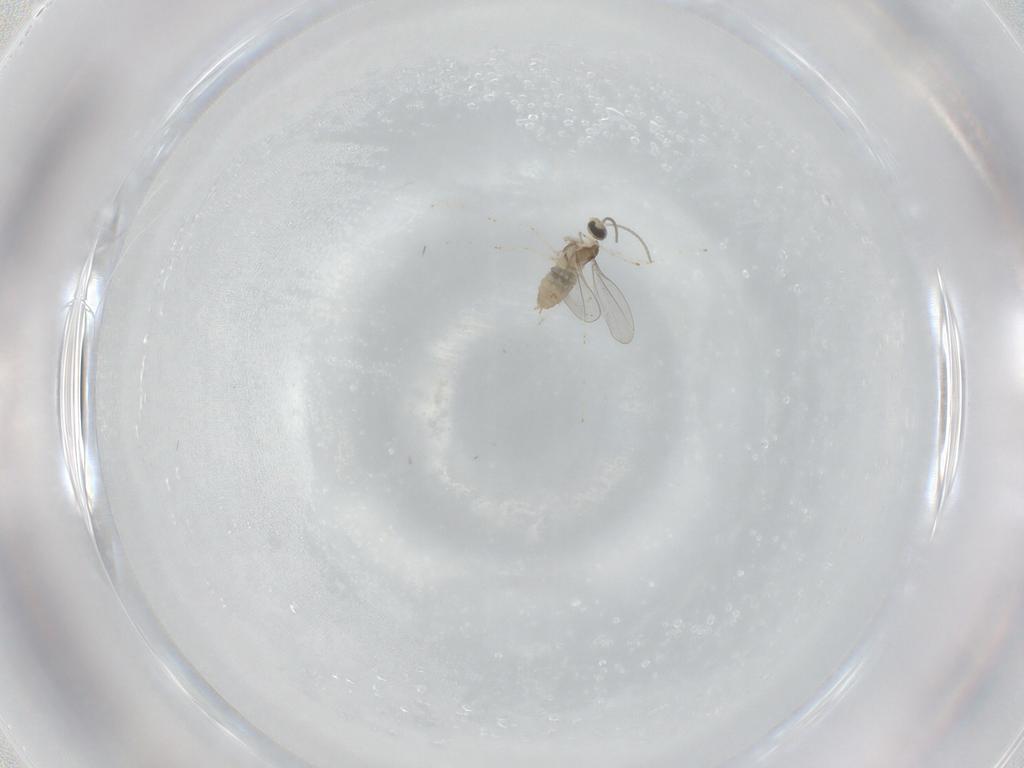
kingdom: Animalia
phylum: Arthropoda
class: Insecta
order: Diptera
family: Cecidomyiidae
